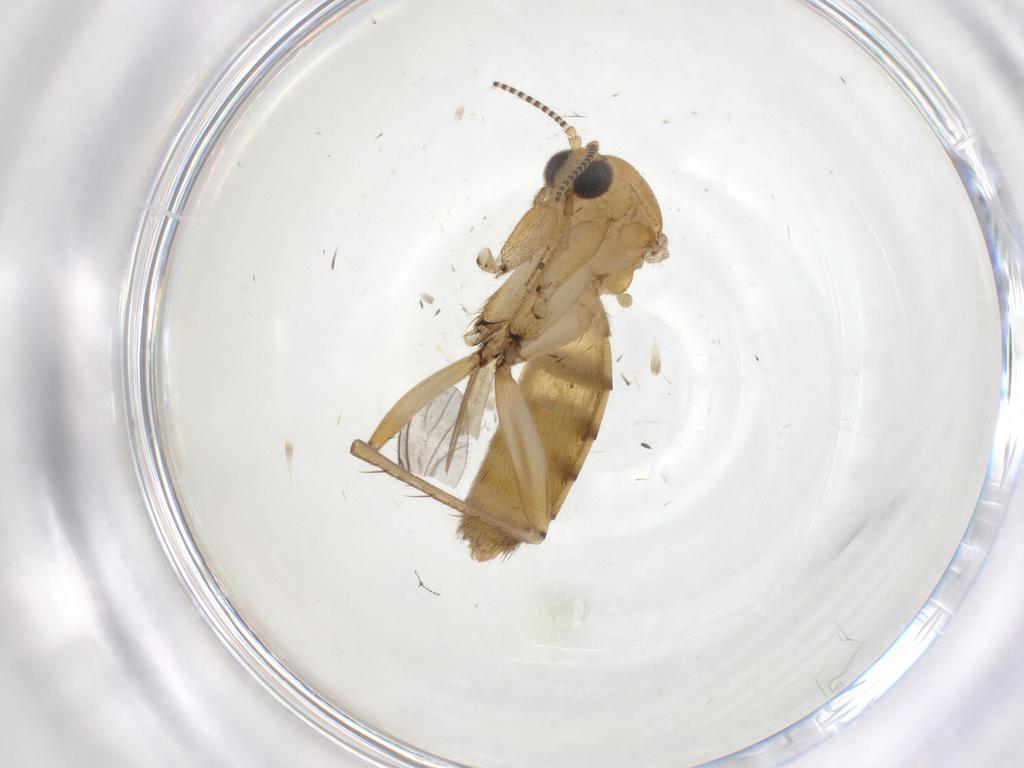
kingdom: Animalia
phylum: Arthropoda
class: Insecta
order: Diptera
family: Mycetophilidae
